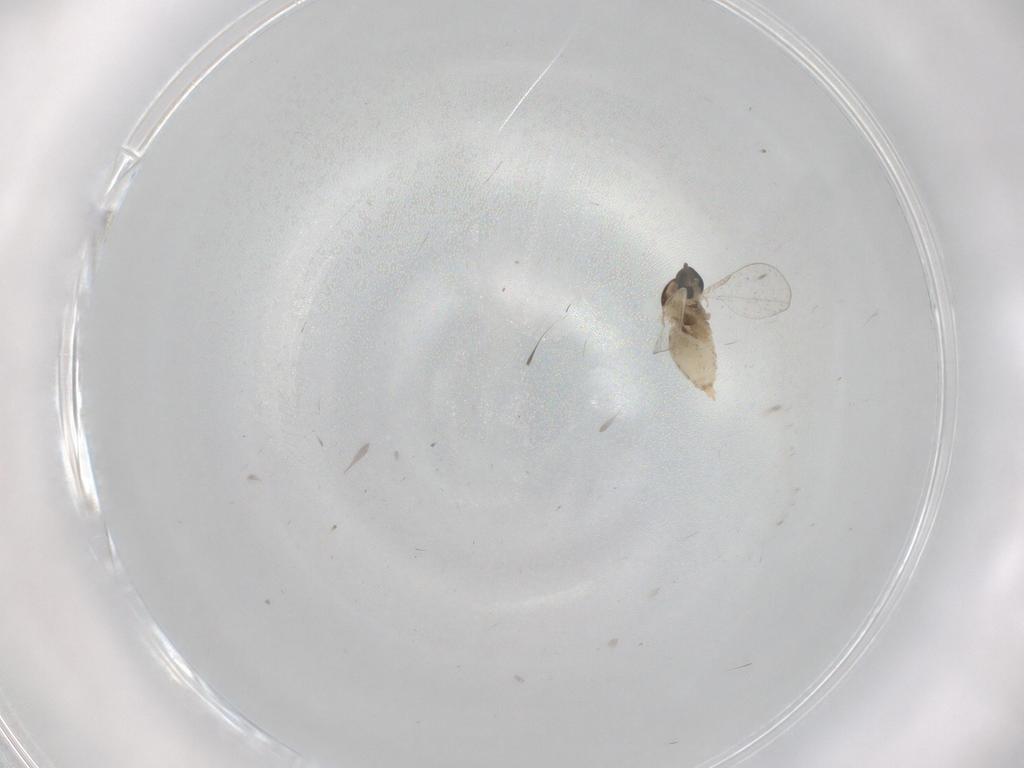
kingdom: Animalia
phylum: Arthropoda
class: Insecta
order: Diptera
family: Cecidomyiidae
